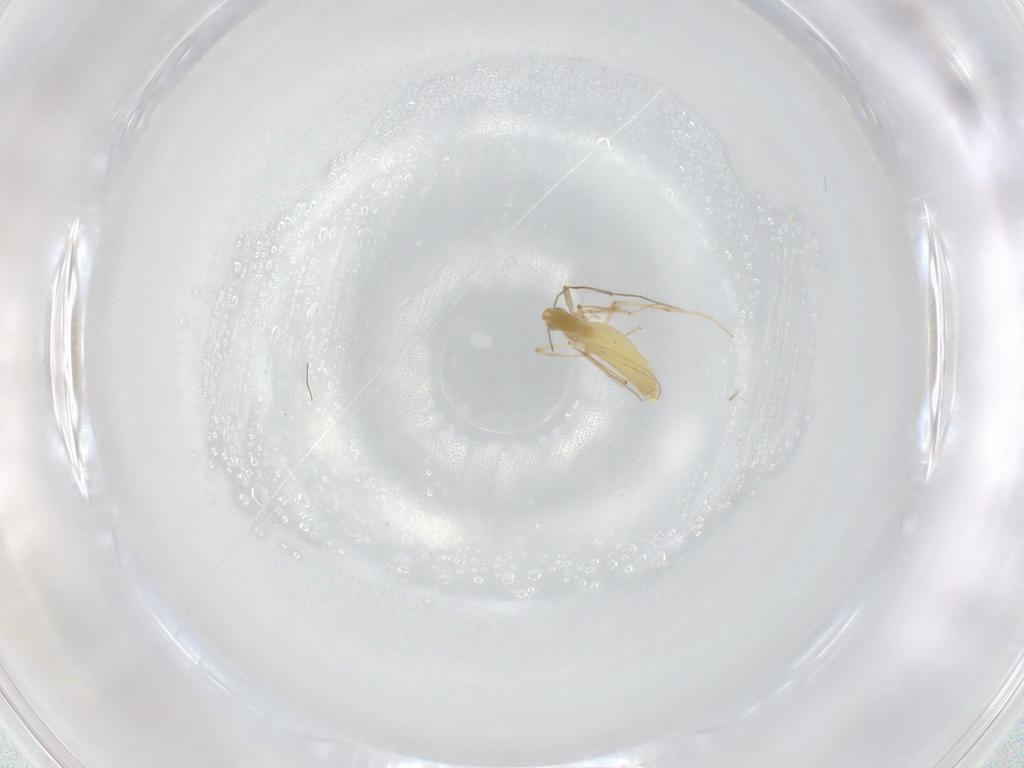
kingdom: Animalia
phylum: Arthropoda
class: Insecta
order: Diptera
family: Chironomidae
